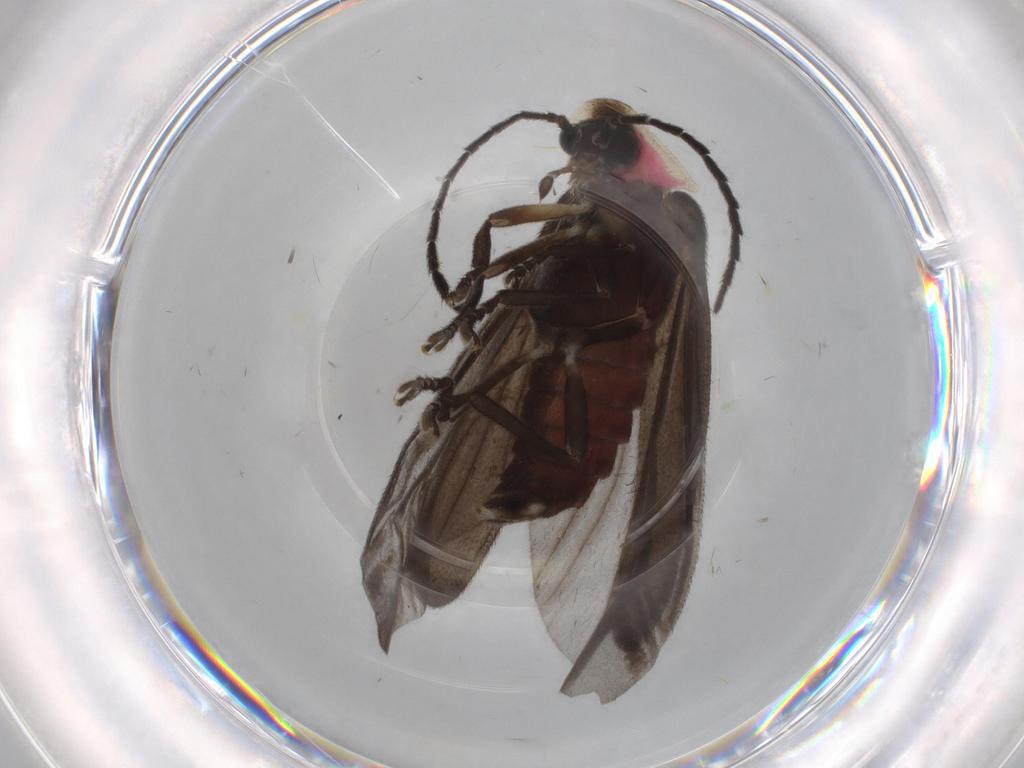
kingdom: Animalia
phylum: Arthropoda
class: Insecta
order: Coleoptera
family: Lampyridae
